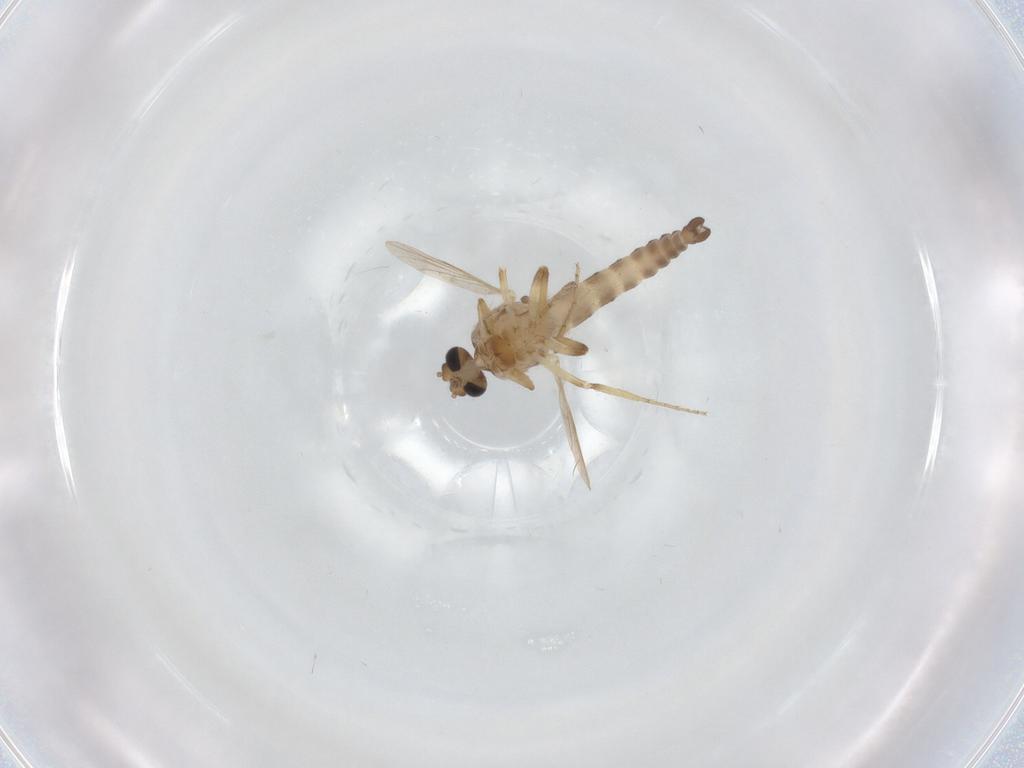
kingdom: Animalia
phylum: Arthropoda
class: Insecta
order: Diptera
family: Ceratopogonidae
